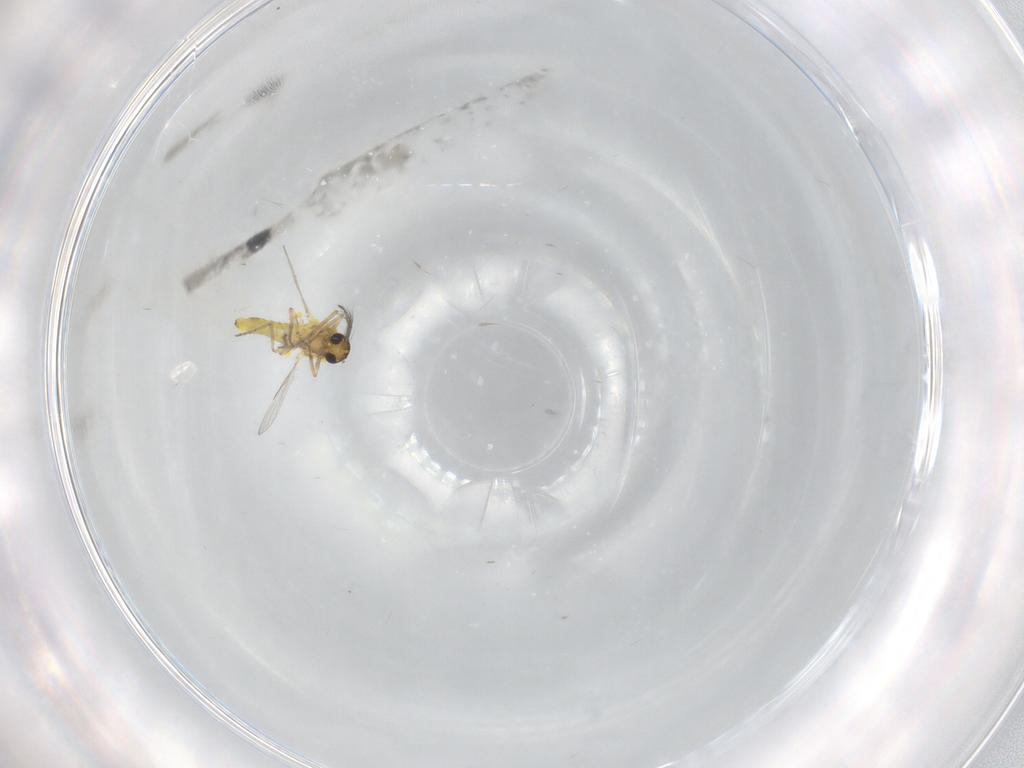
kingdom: Animalia
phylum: Arthropoda
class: Insecta
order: Diptera
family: Ceratopogonidae
